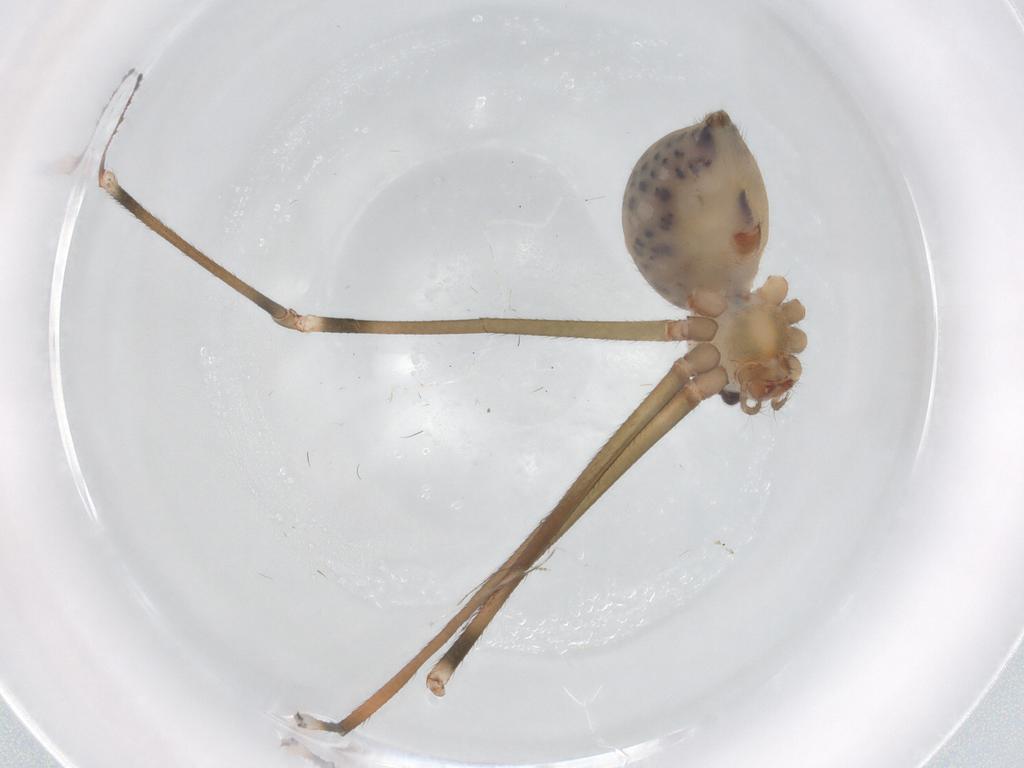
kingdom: Animalia
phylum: Arthropoda
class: Arachnida
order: Araneae
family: Pholcidae
